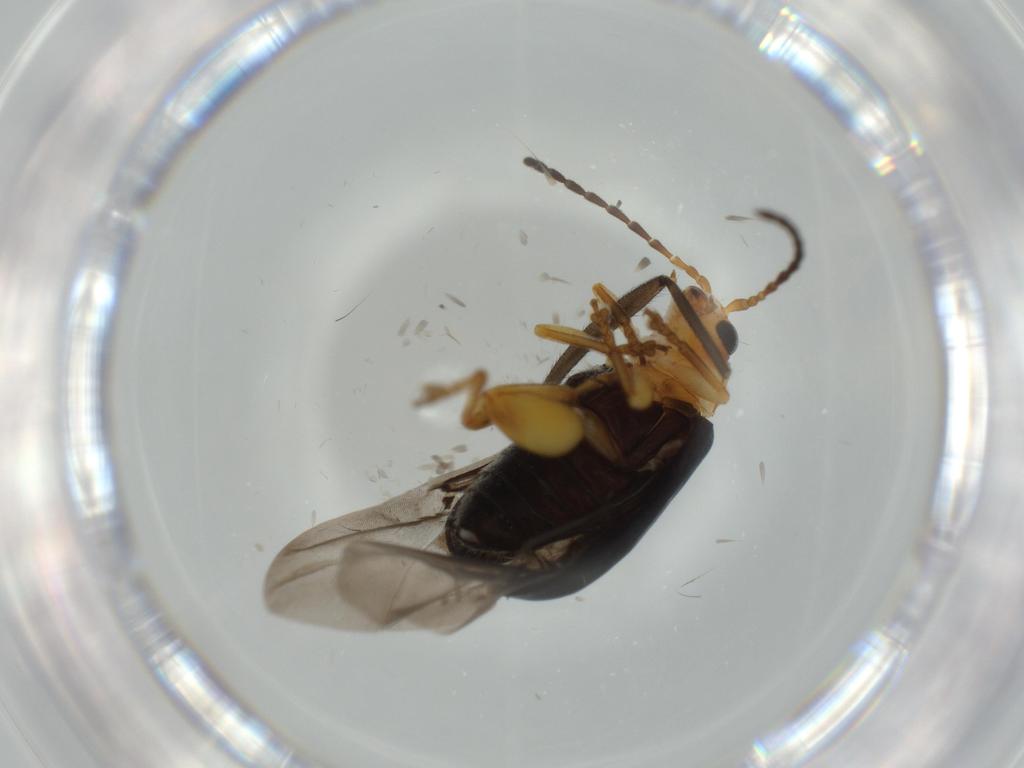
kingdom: Animalia
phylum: Arthropoda
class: Insecta
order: Coleoptera
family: Chrysomelidae
